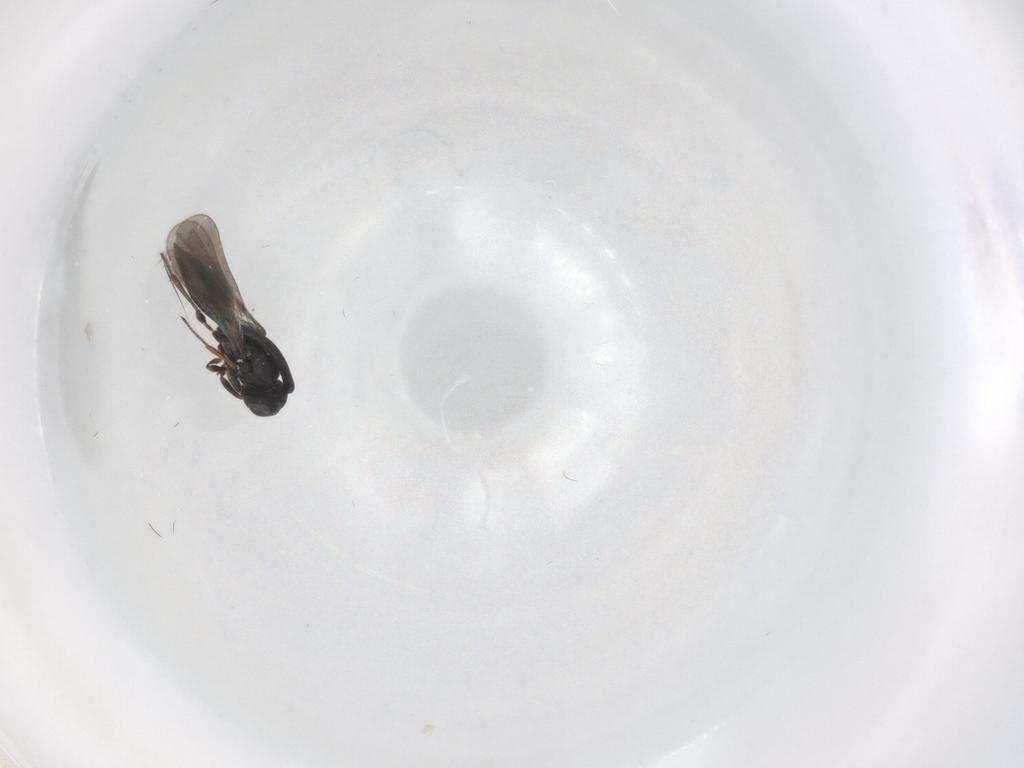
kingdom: Animalia
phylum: Arthropoda
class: Insecta
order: Hymenoptera
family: Platygastridae
